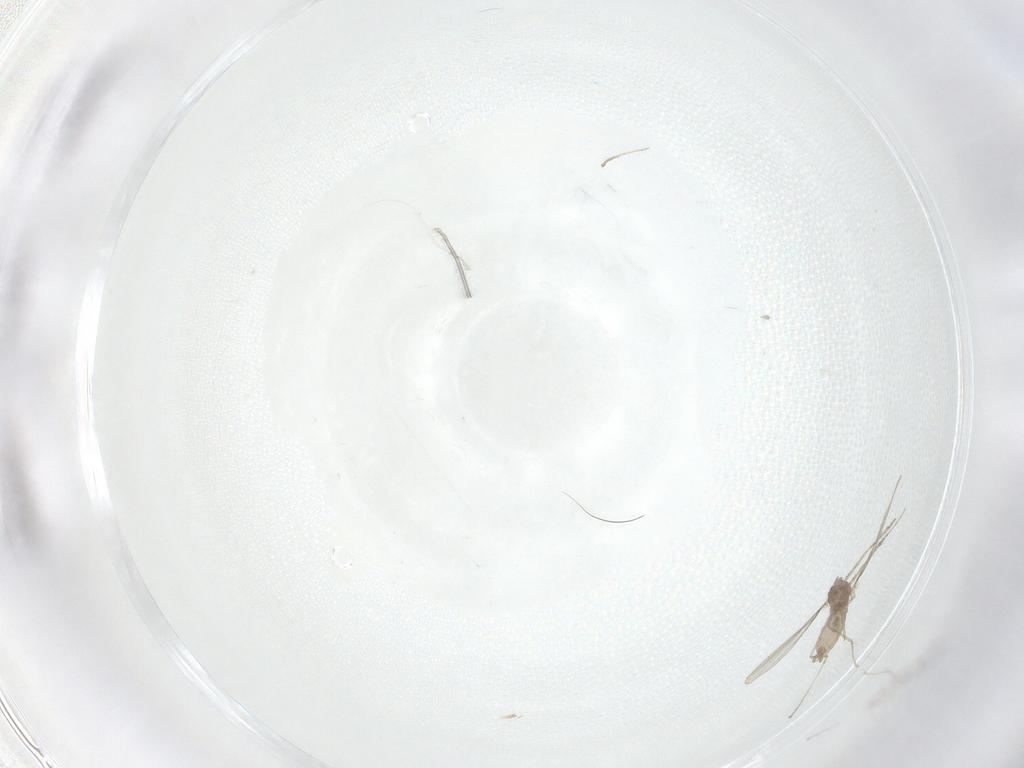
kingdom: Animalia
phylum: Arthropoda
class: Insecta
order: Diptera
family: Cecidomyiidae
